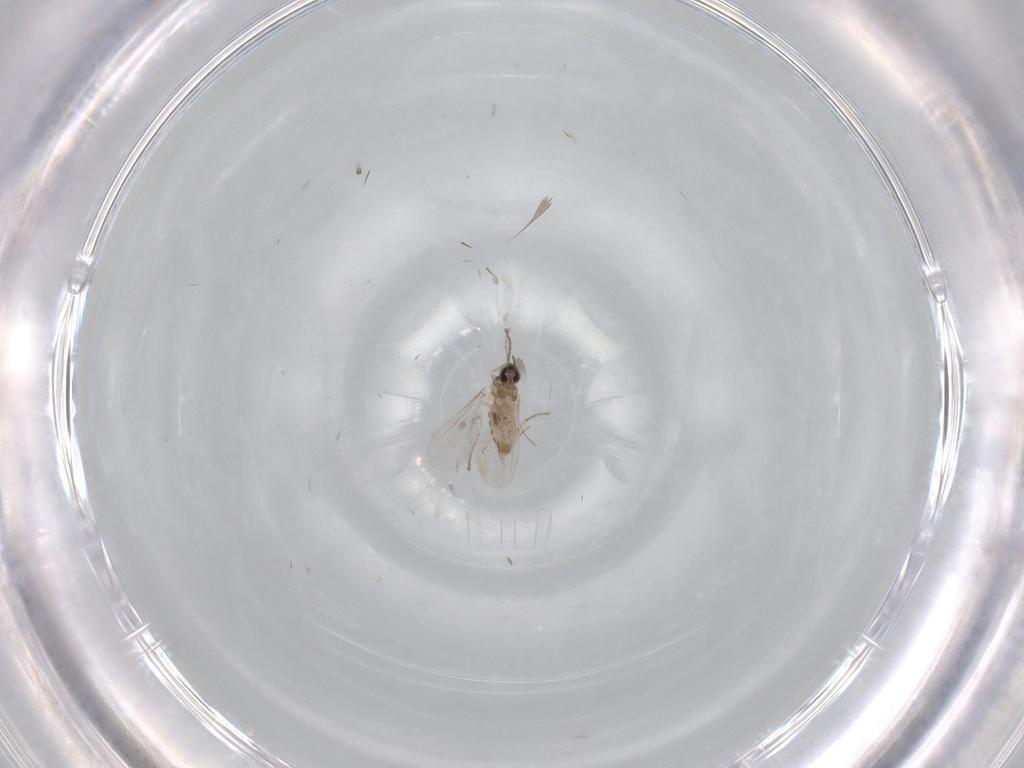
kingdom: Animalia
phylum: Arthropoda
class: Insecta
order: Diptera
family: Cecidomyiidae
